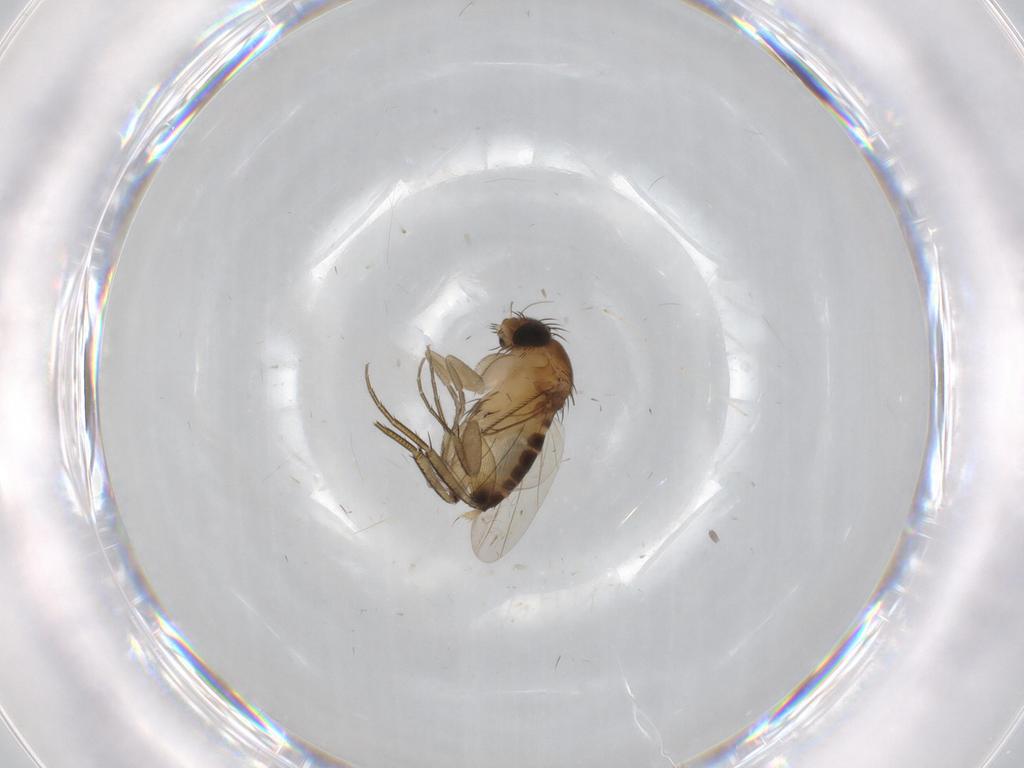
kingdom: Animalia
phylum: Arthropoda
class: Insecta
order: Diptera
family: Phoridae
